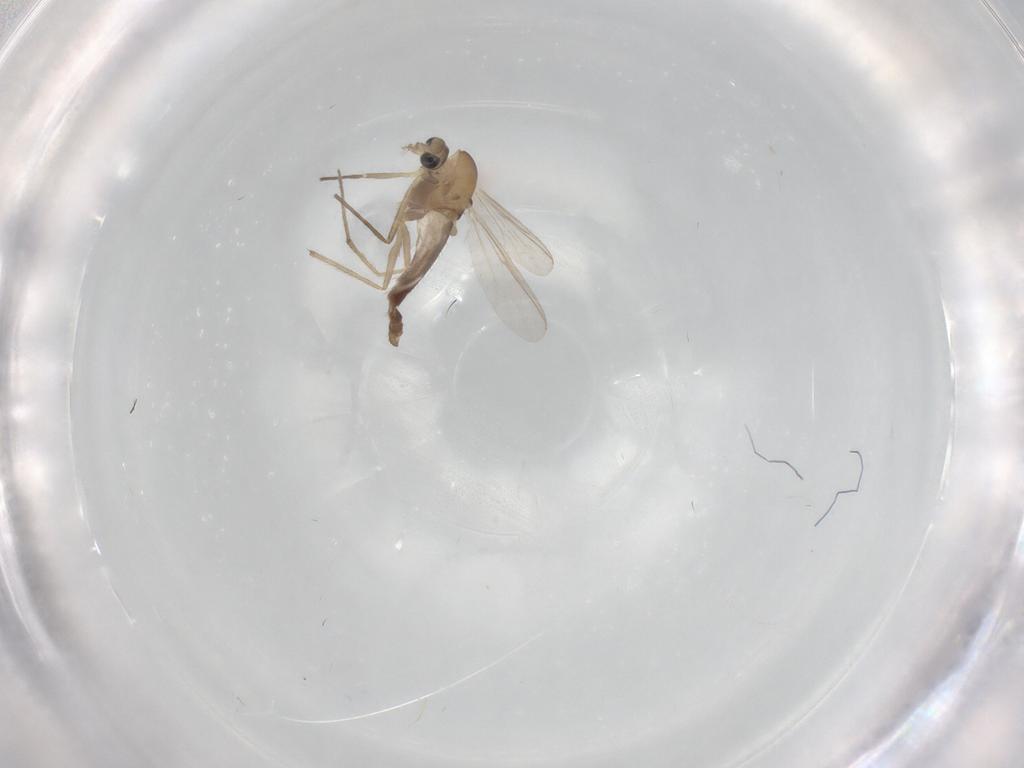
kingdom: Animalia
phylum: Arthropoda
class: Insecta
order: Diptera
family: Chironomidae
